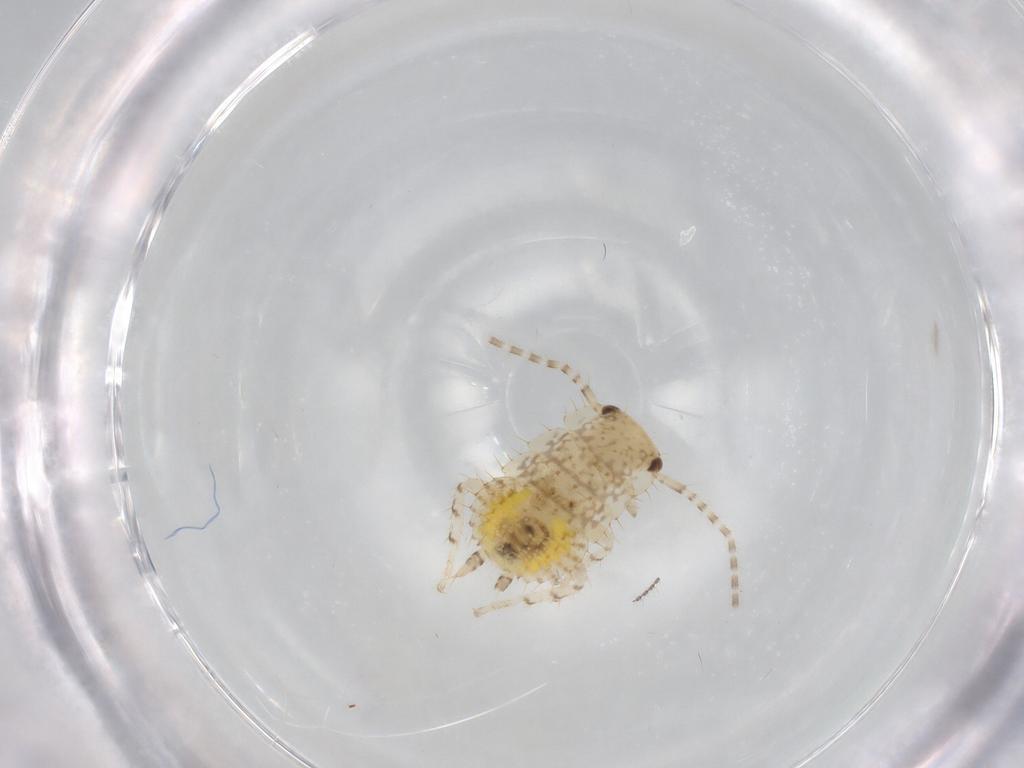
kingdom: Animalia
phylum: Arthropoda
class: Insecta
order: Blattodea
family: Ectobiidae
